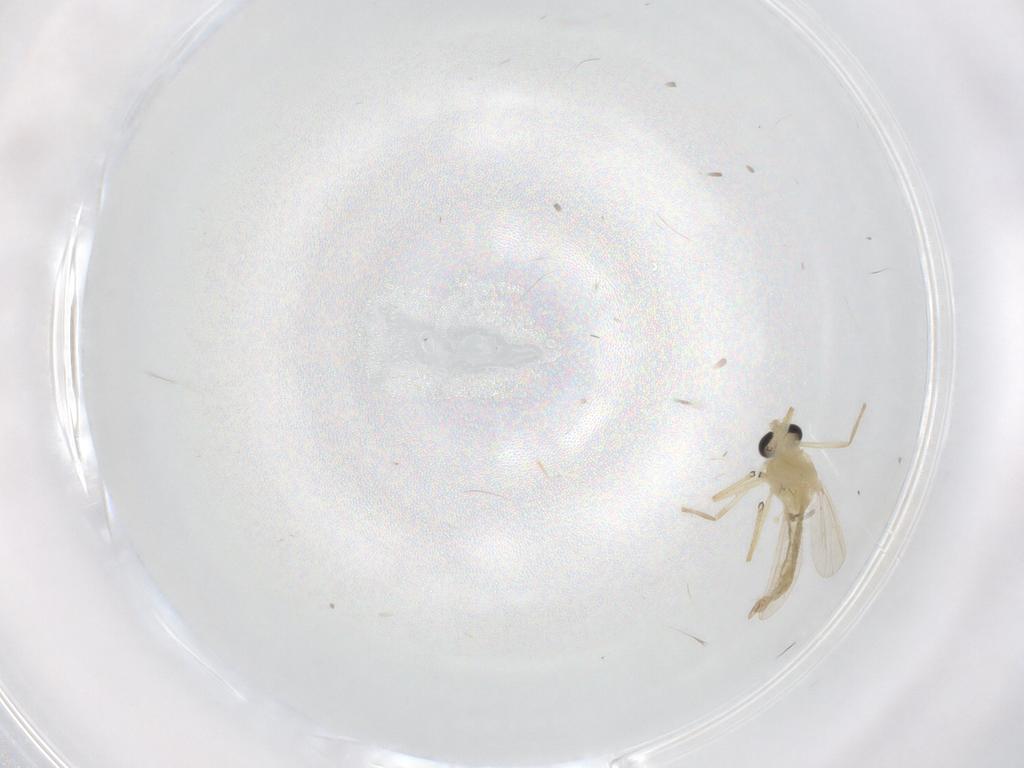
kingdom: Animalia
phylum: Arthropoda
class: Insecta
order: Diptera
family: Chironomidae
